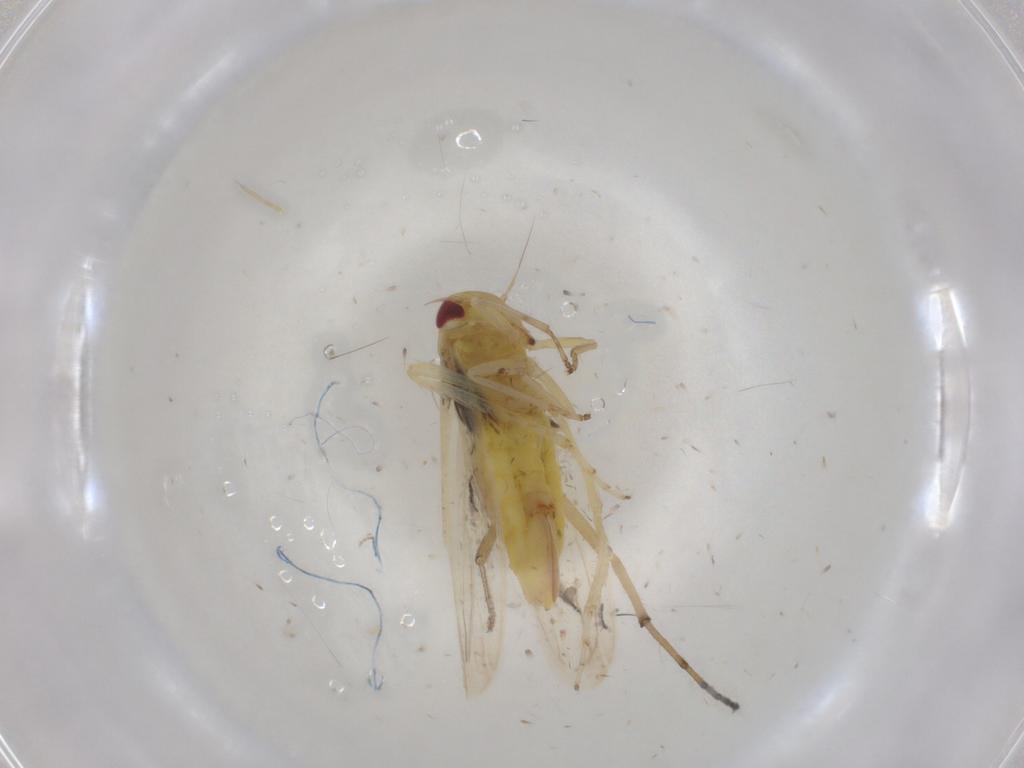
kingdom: Animalia
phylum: Arthropoda
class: Insecta
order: Hemiptera
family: Cicadellidae
